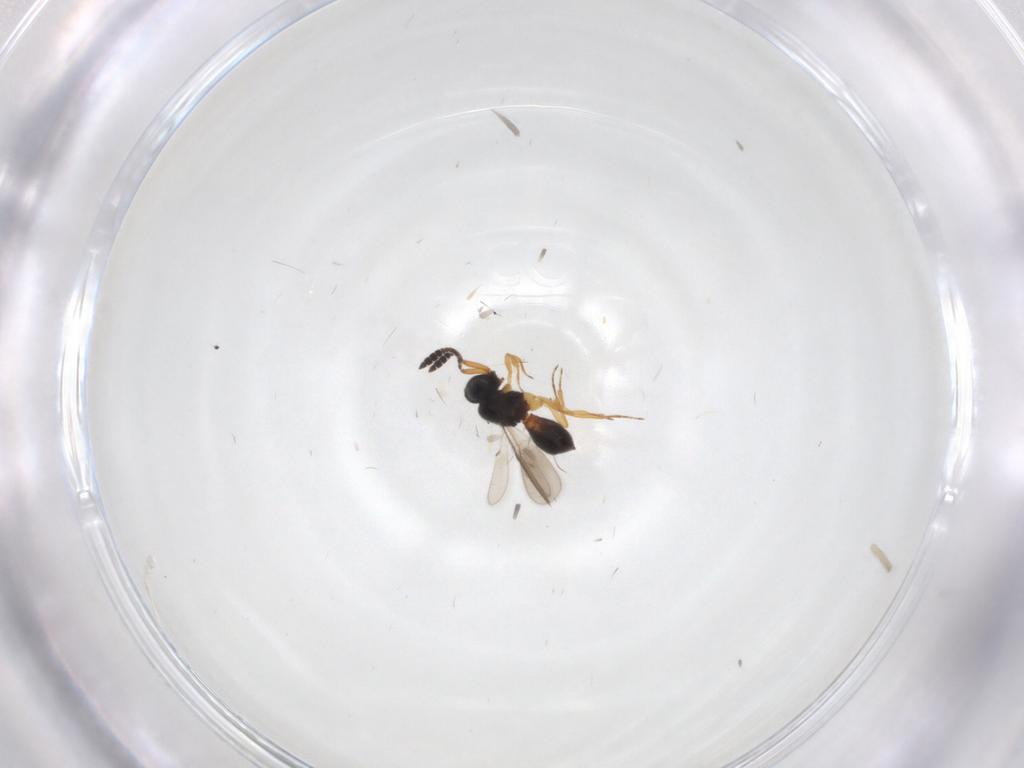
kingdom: Animalia
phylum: Arthropoda
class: Insecta
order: Hymenoptera
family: Scelionidae
